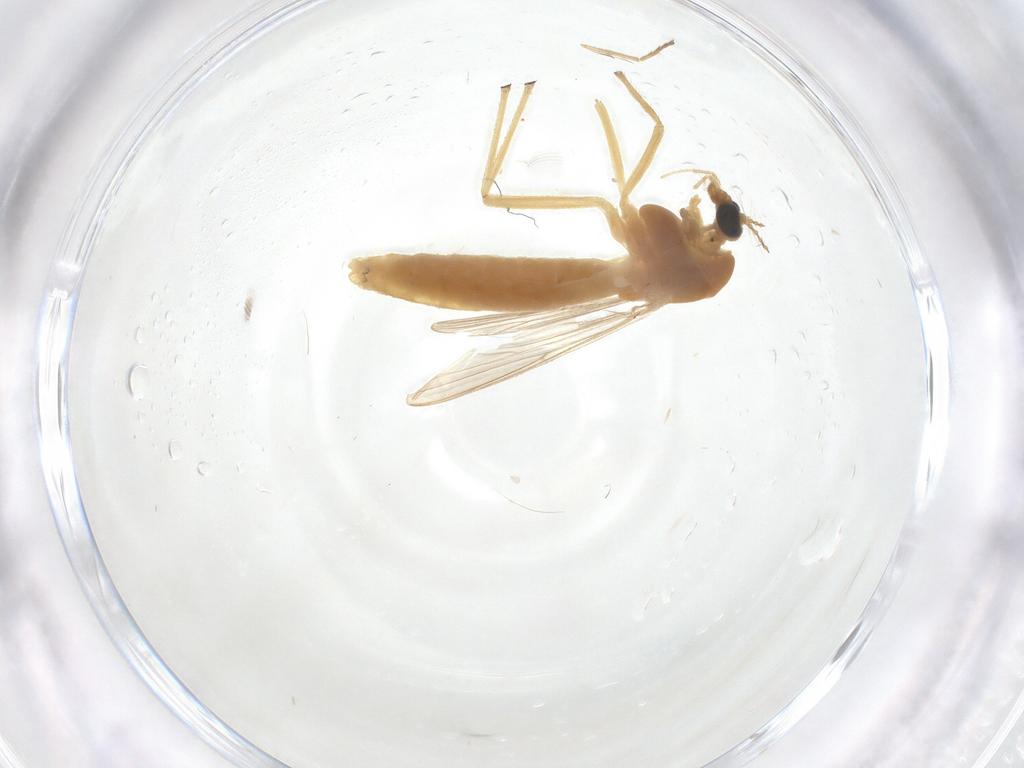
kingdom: Animalia
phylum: Arthropoda
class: Insecta
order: Diptera
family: Chironomidae
